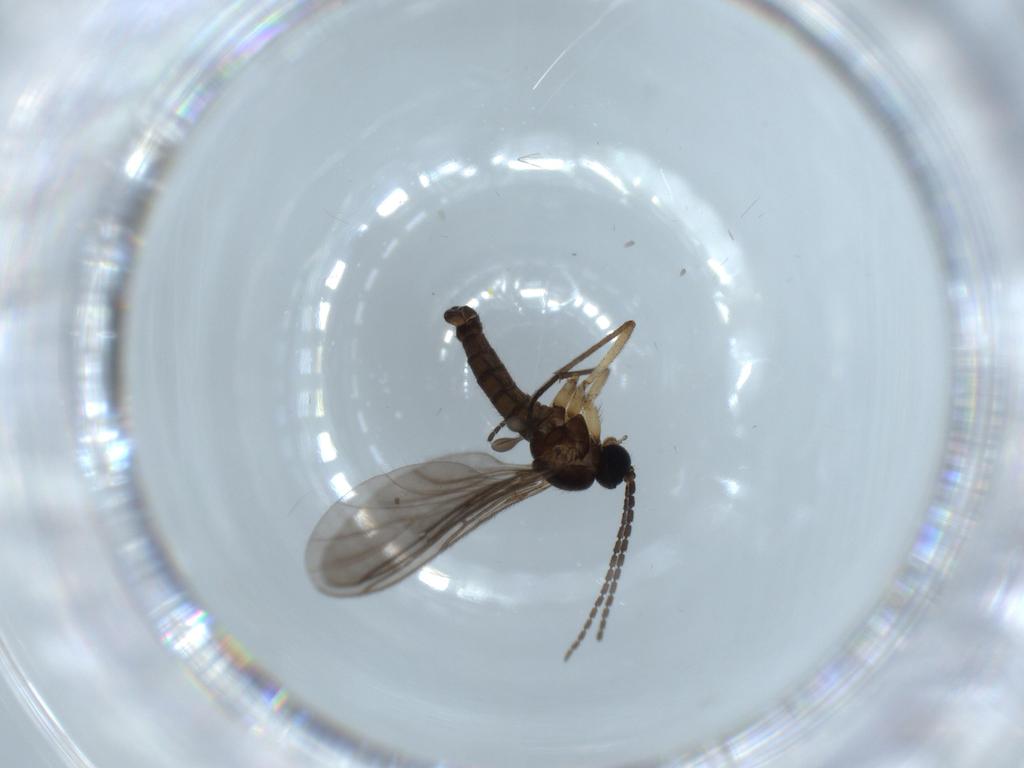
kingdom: Animalia
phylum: Arthropoda
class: Insecta
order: Diptera
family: Sciaridae
